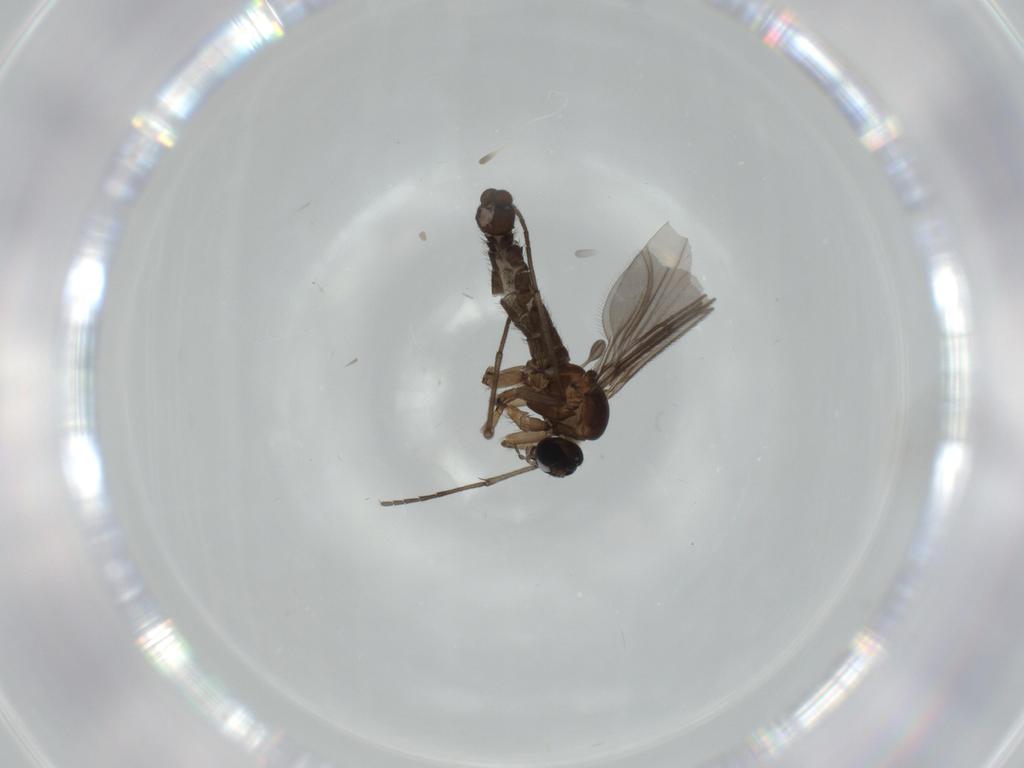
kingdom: Animalia
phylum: Arthropoda
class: Insecta
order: Diptera
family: Sciaridae
